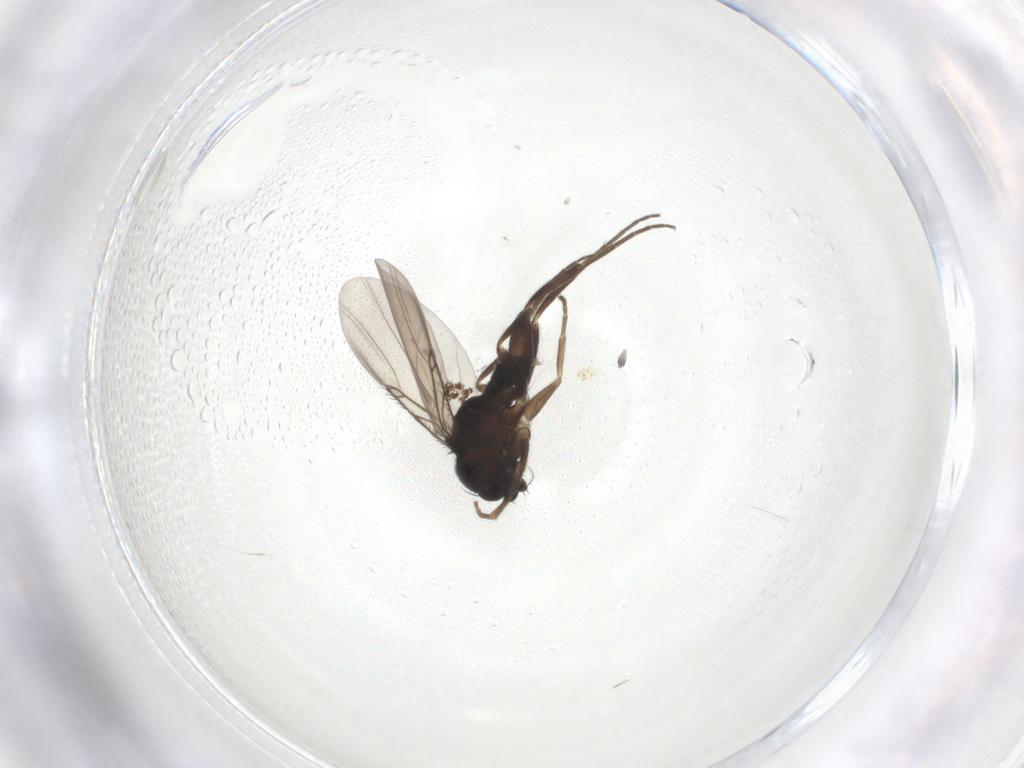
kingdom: Animalia
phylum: Arthropoda
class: Insecta
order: Diptera
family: Phoridae
